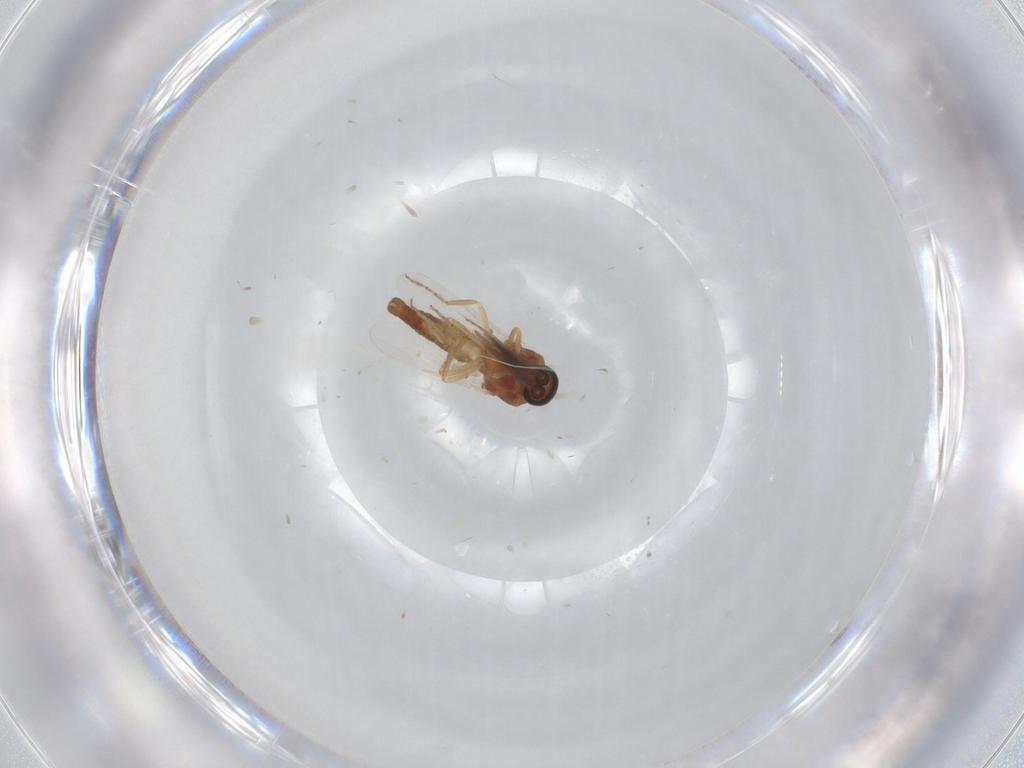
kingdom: Animalia
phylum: Arthropoda
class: Insecta
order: Diptera
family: Ceratopogonidae
